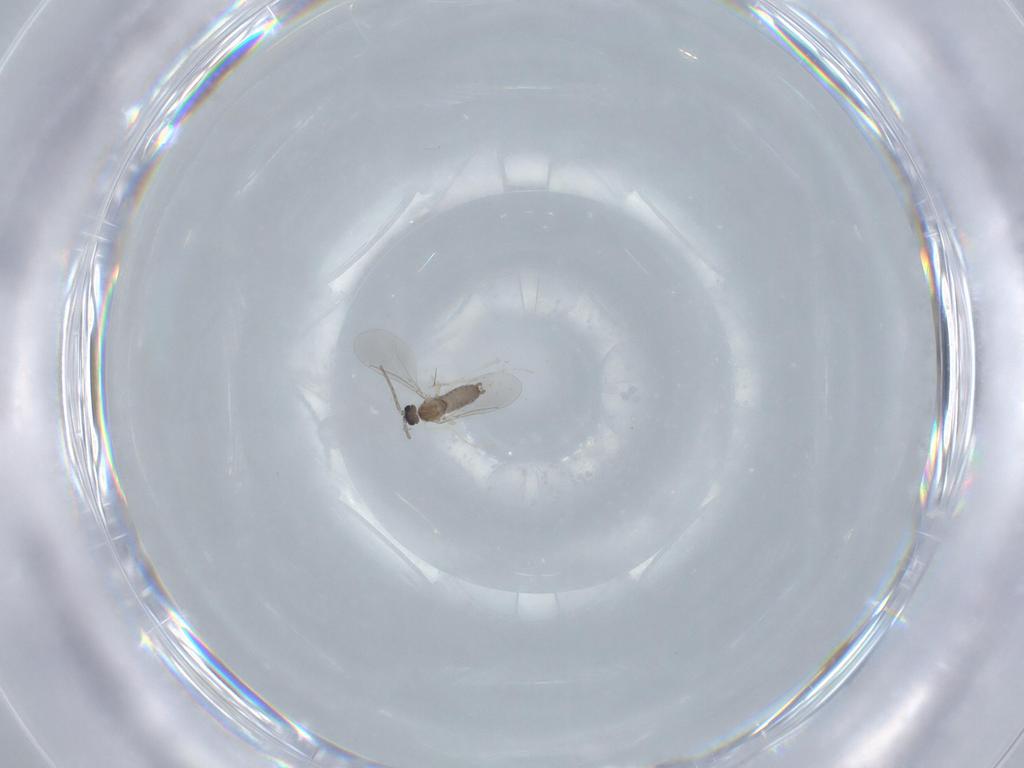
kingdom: Animalia
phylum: Arthropoda
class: Insecta
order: Diptera
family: Cecidomyiidae
